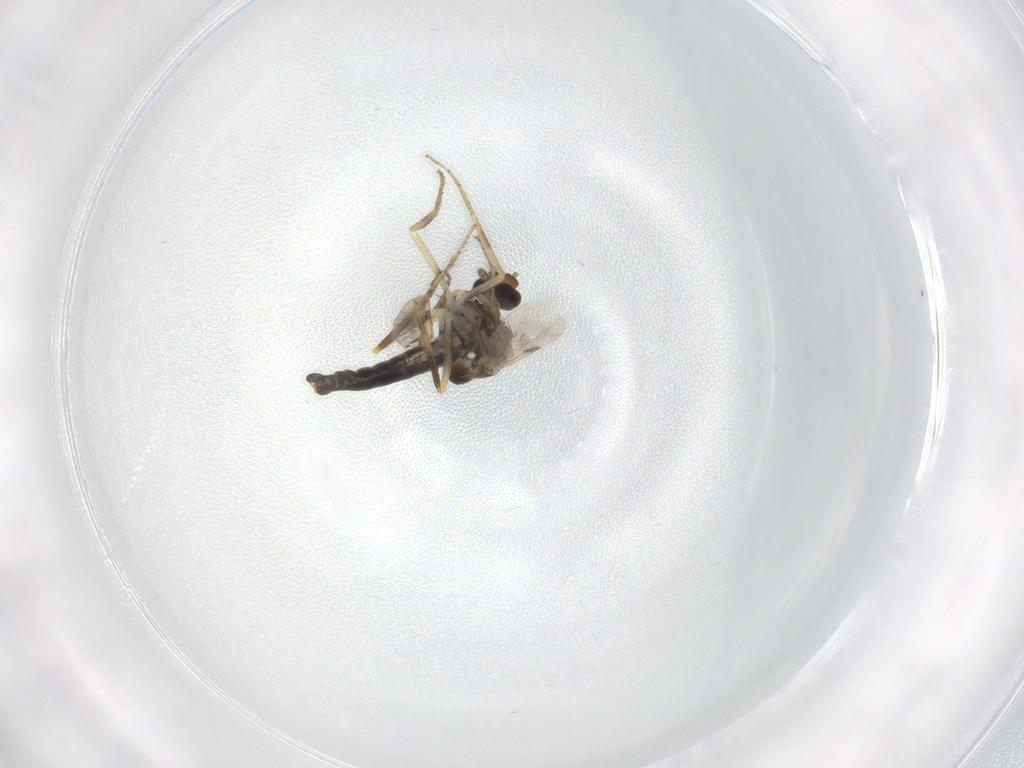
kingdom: Animalia
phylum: Arthropoda
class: Insecta
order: Diptera
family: Ceratopogonidae
